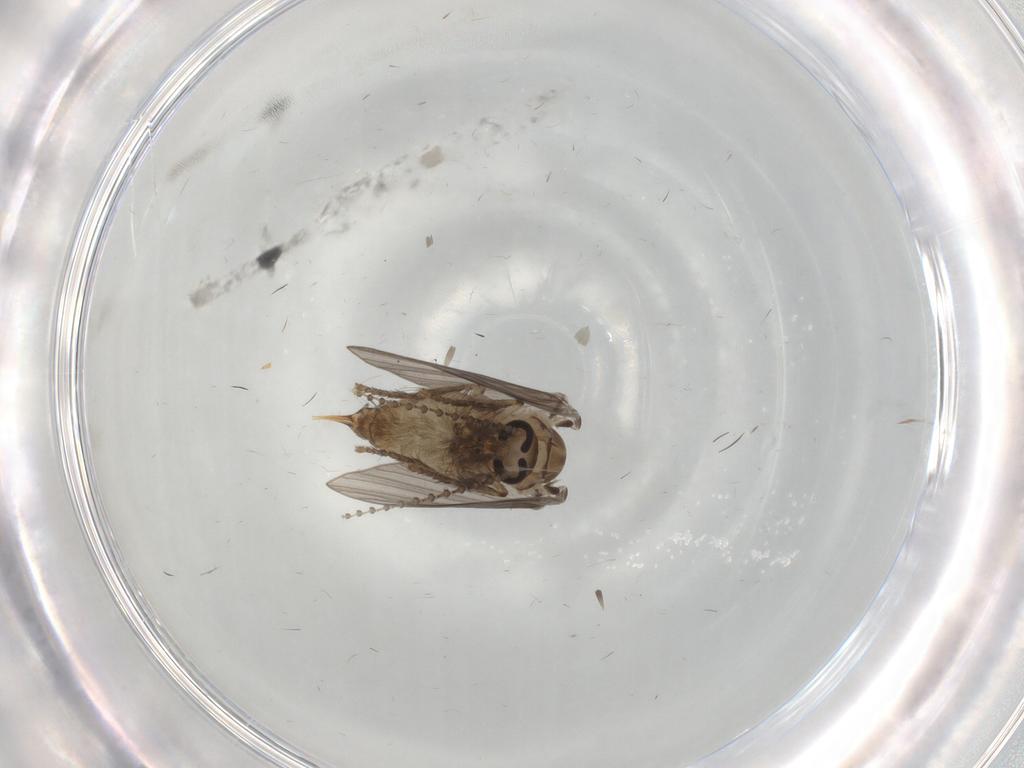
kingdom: Animalia
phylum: Arthropoda
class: Insecta
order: Diptera
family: Psychodidae
